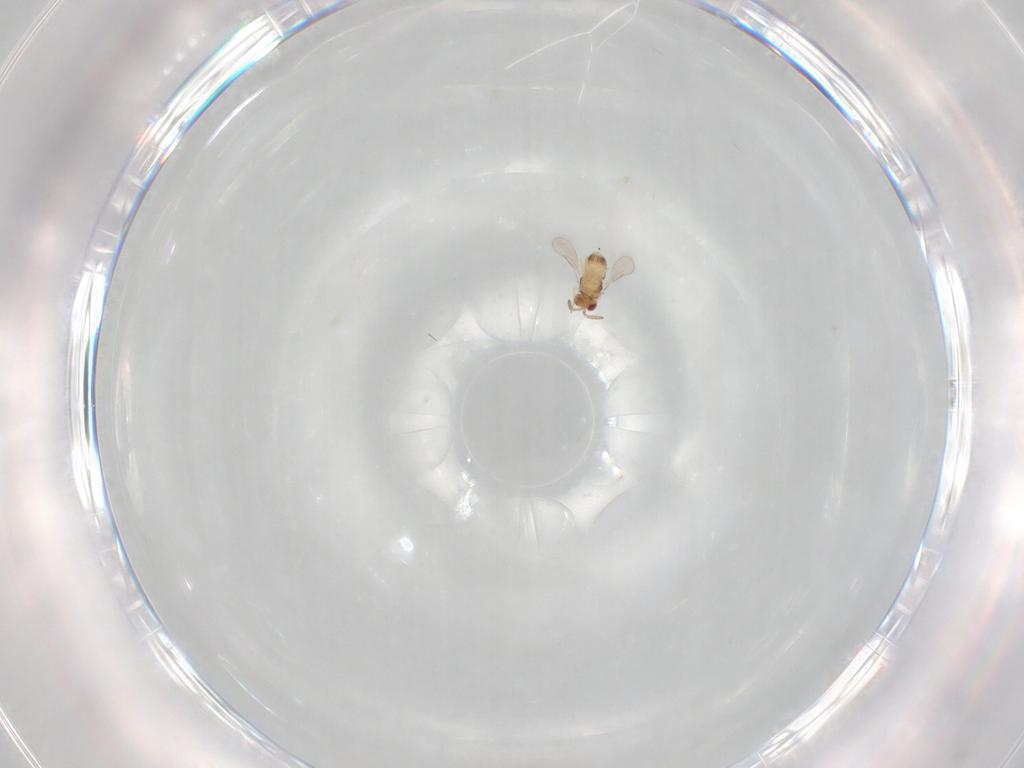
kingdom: Animalia
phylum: Arthropoda
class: Insecta
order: Hymenoptera
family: Aphelinidae
